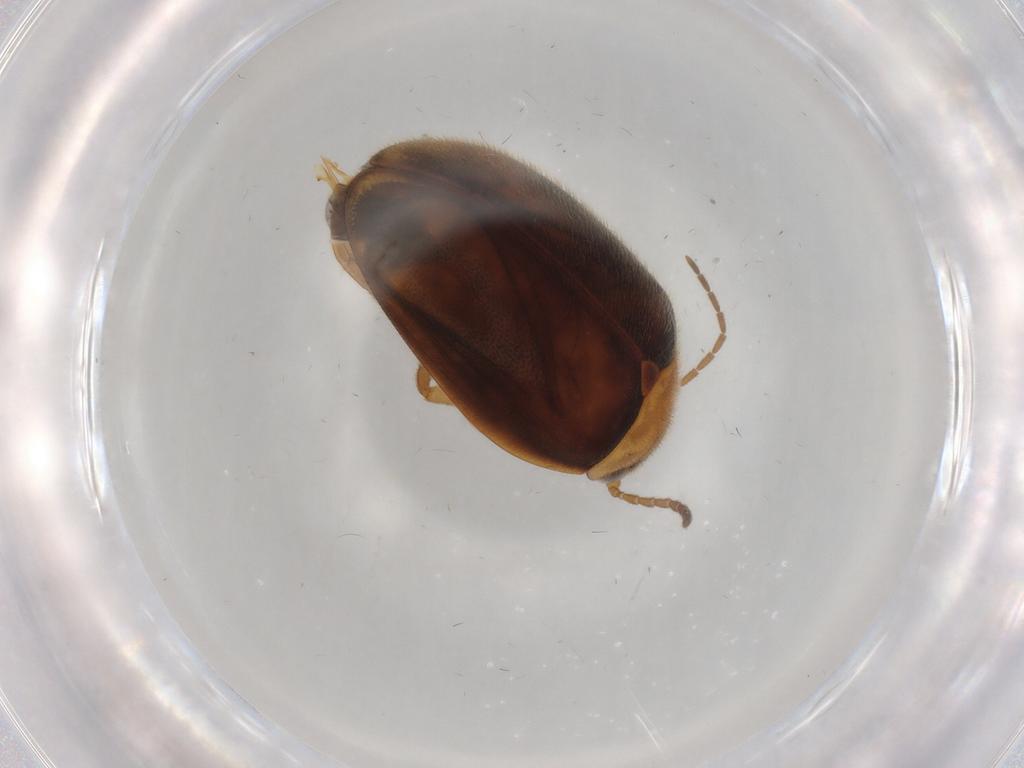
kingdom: Animalia
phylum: Arthropoda
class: Insecta
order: Coleoptera
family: Scirtidae
